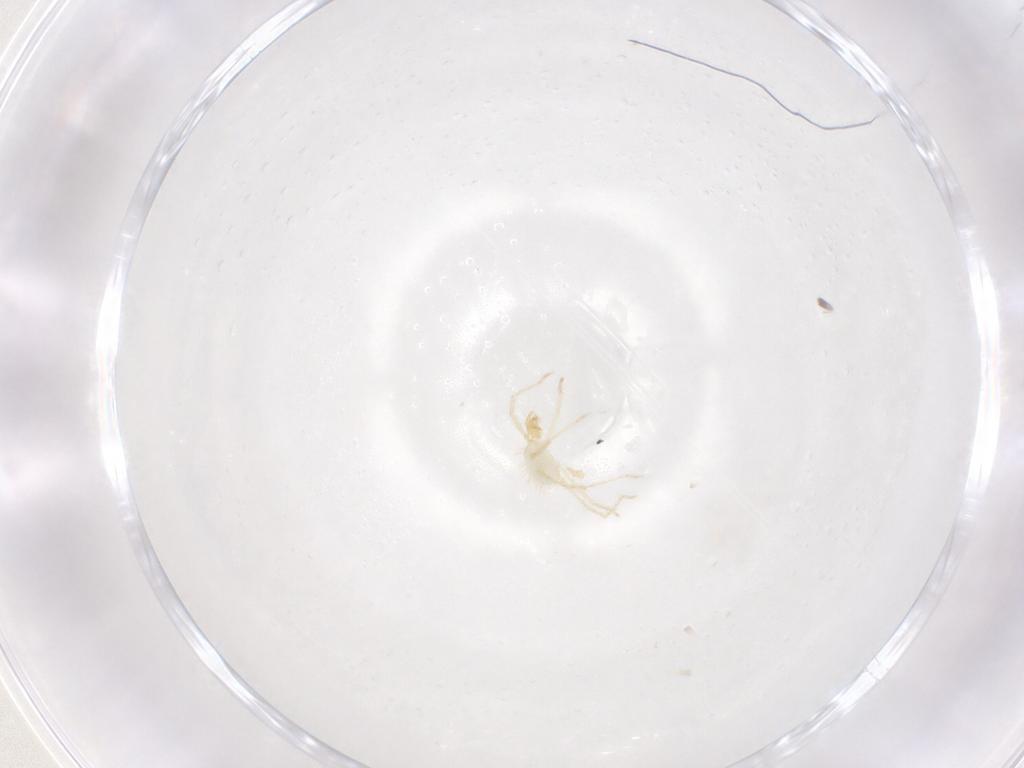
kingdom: Animalia
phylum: Arthropoda
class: Arachnida
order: Trombidiformes
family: Erythraeidae
